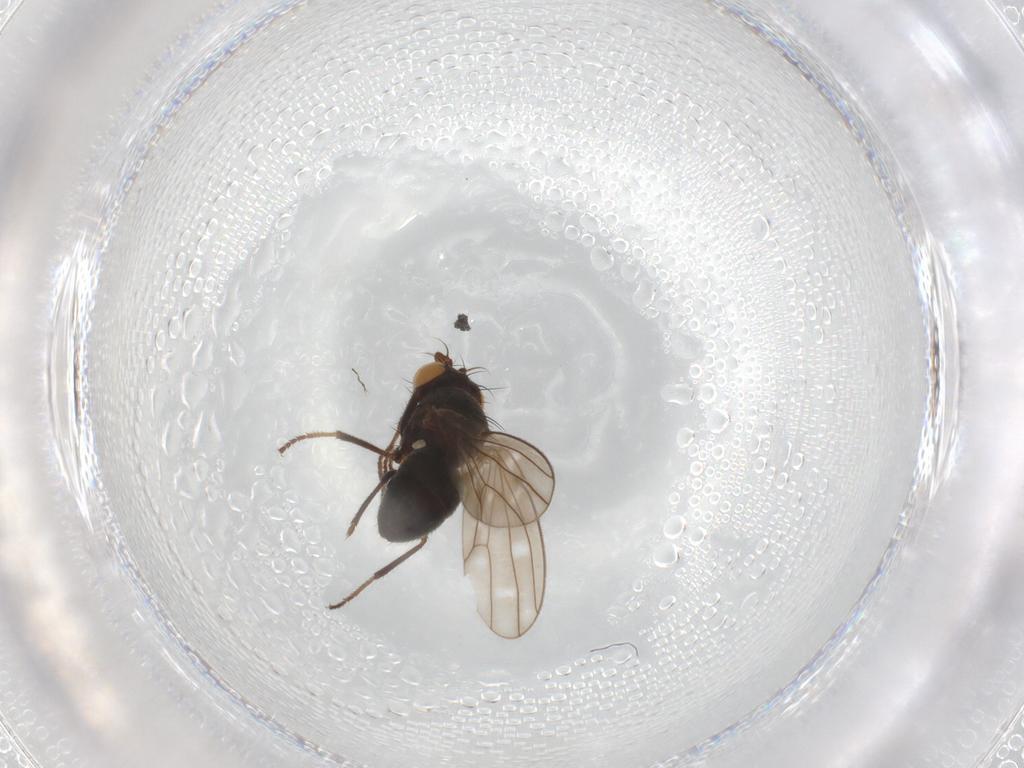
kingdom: Animalia
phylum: Arthropoda
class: Insecta
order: Diptera
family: Ephydridae
